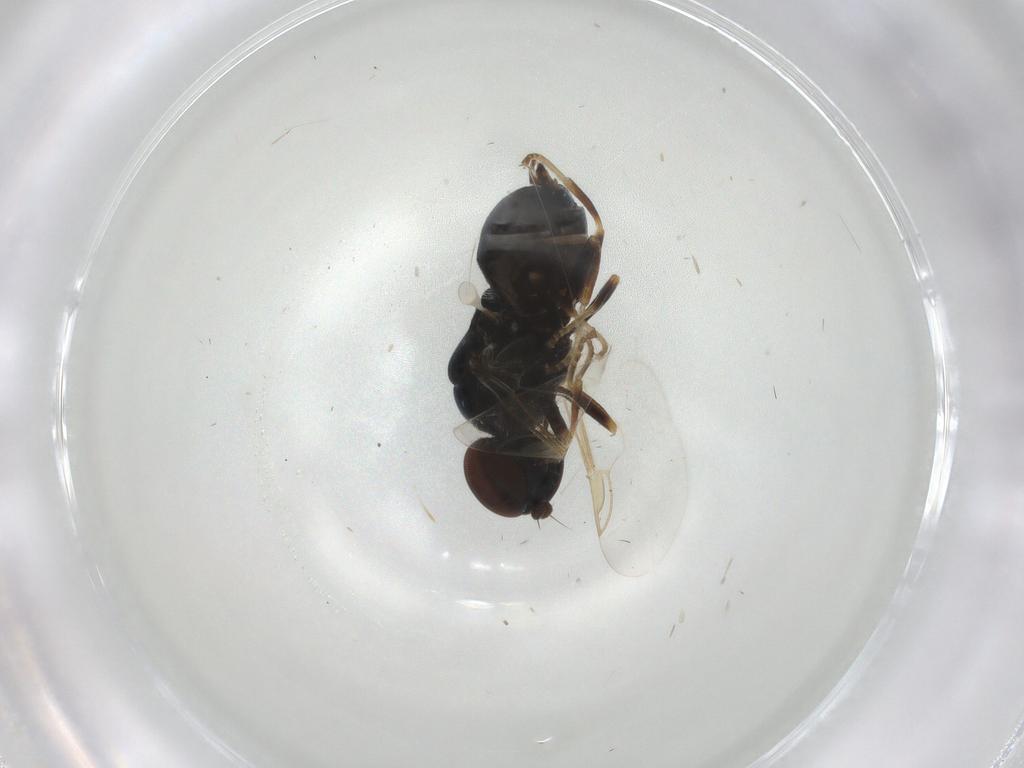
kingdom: Animalia
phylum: Arthropoda
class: Insecta
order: Diptera
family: Stratiomyidae
